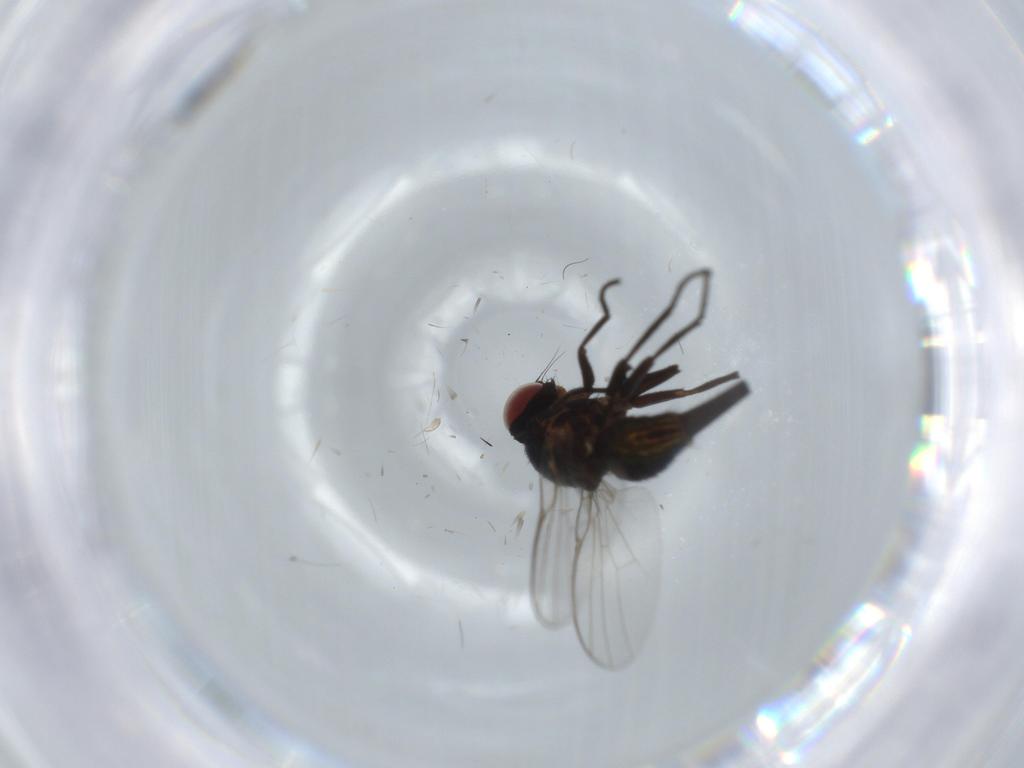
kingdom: Animalia
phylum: Arthropoda
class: Insecta
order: Diptera
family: Agromyzidae
